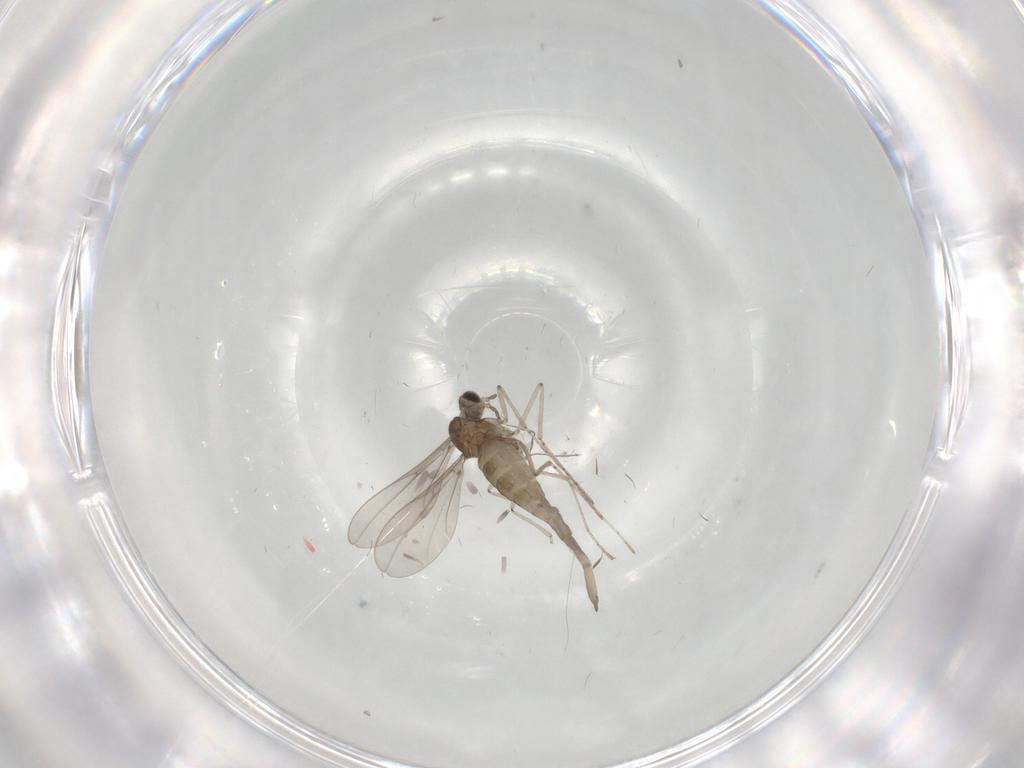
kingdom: Animalia
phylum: Arthropoda
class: Insecta
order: Diptera
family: Cecidomyiidae
